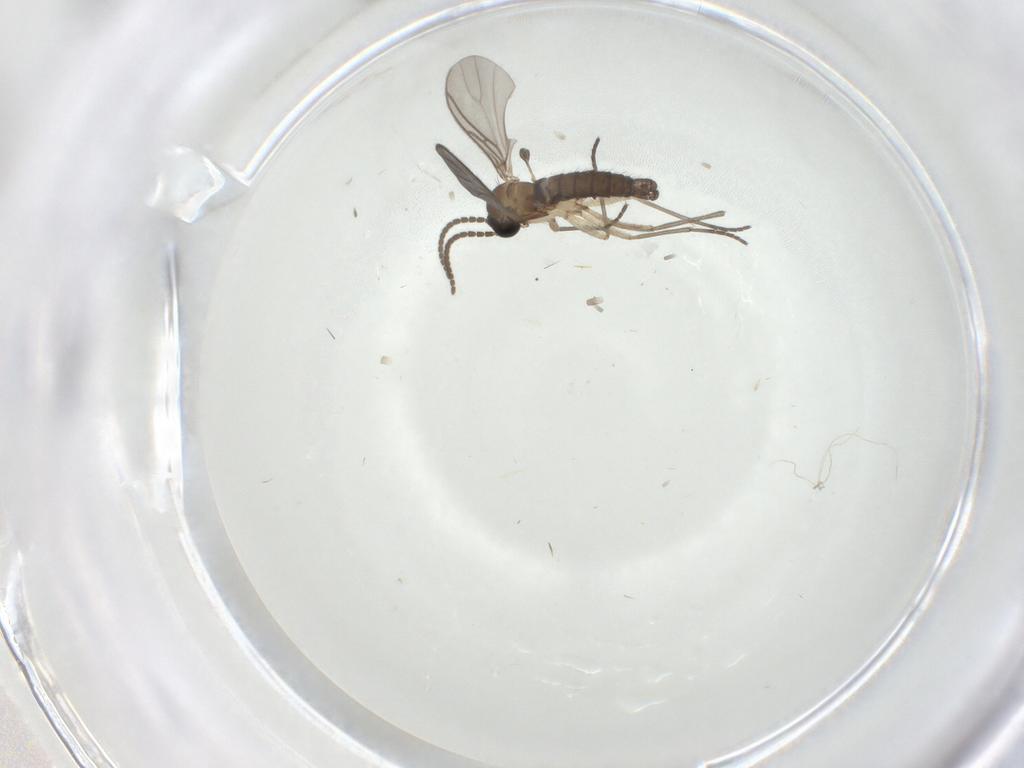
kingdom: Animalia
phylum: Arthropoda
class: Insecta
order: Diptera
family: Sciaridae
